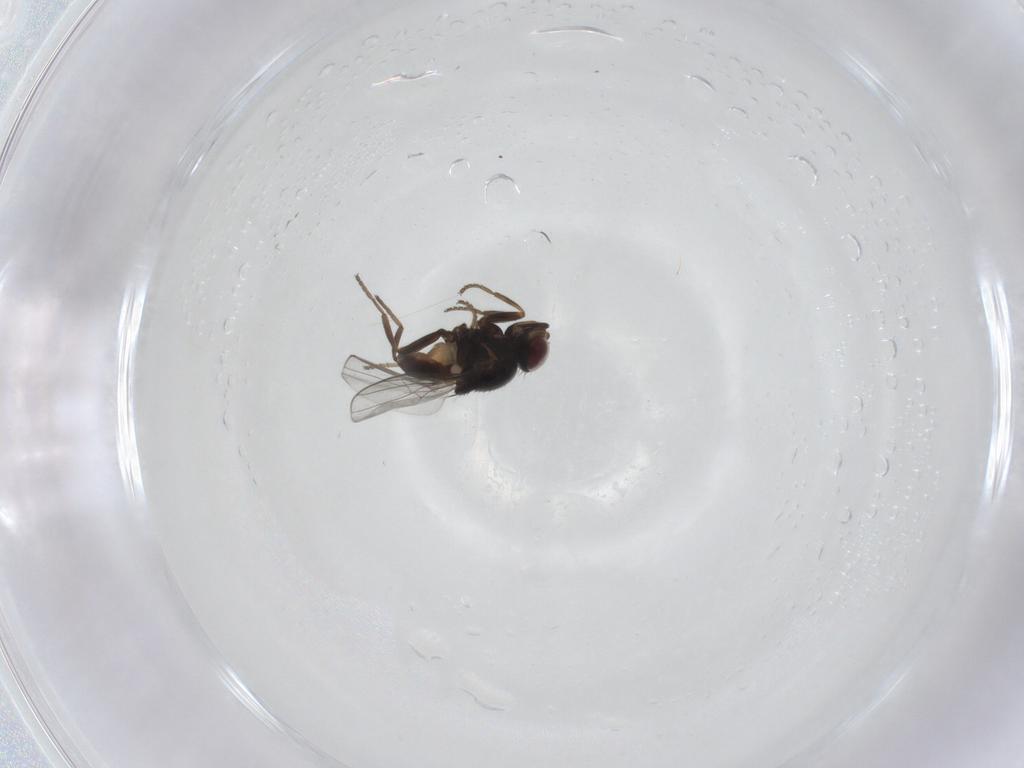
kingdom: Animalia
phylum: Arthropoda
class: Insecta
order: Diptera
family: Chloropidae
